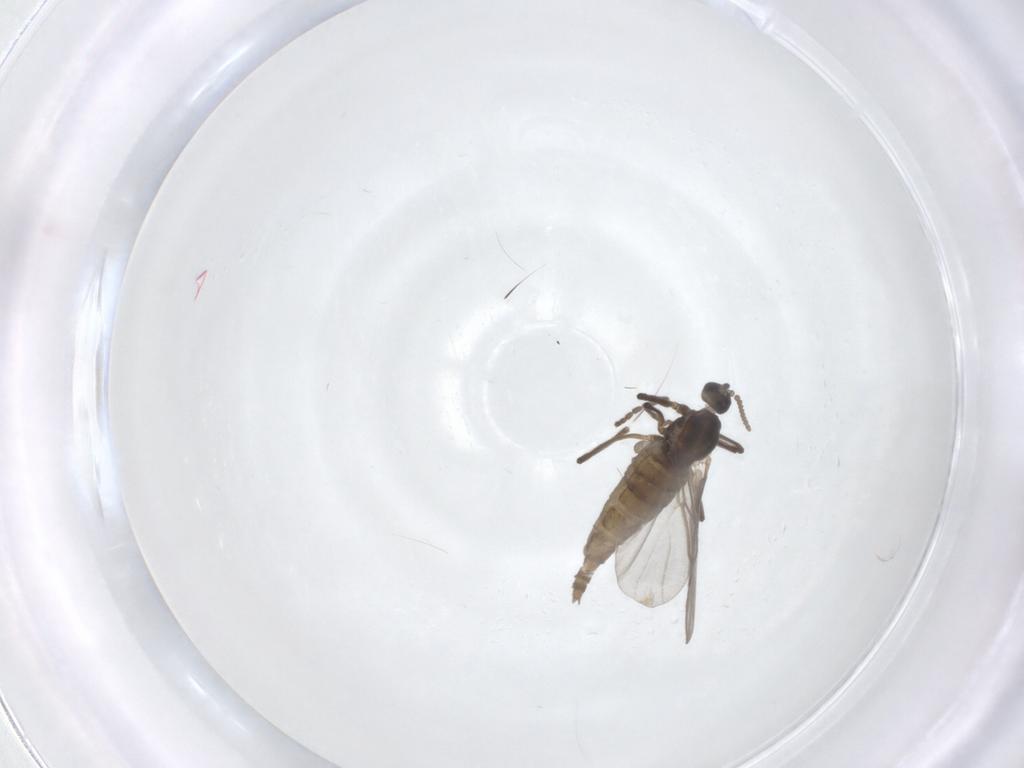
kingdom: Animalia
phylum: Arthropoda
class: Insecta
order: Diptera
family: Cecidomyiidae
